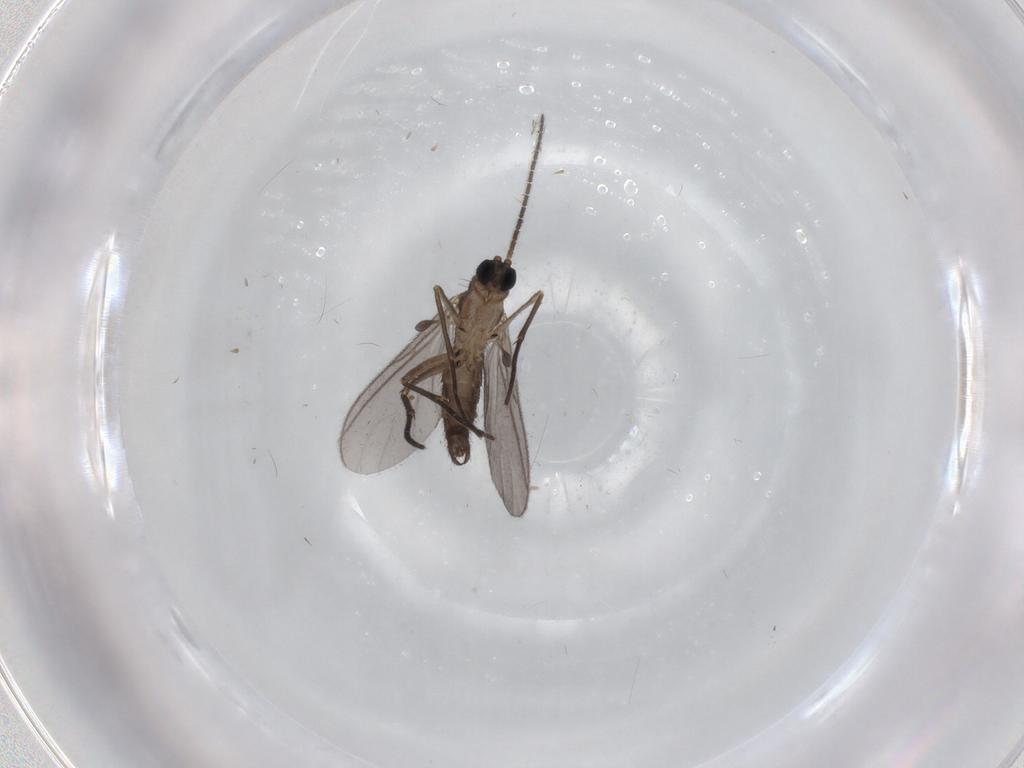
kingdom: Animalia
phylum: Arthropoda
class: Insecta
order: Diptera
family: Sciaridae
